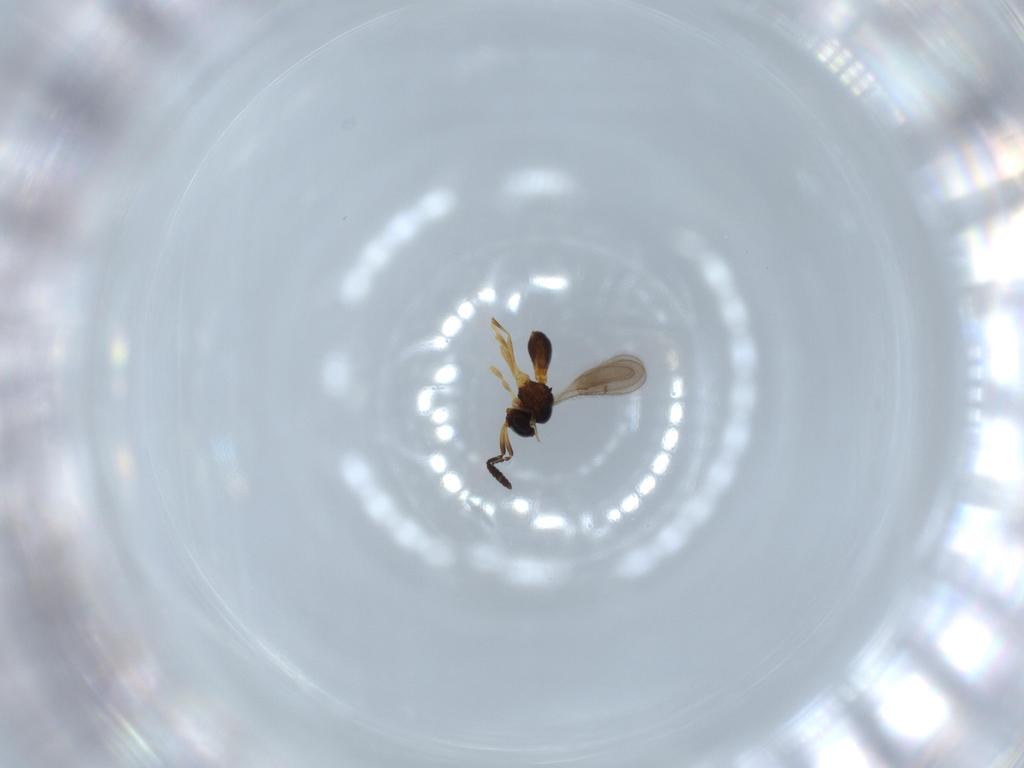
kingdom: Animalia
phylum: Arthropoda
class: Insecta
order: Hymenoptera
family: Aphelinidae
